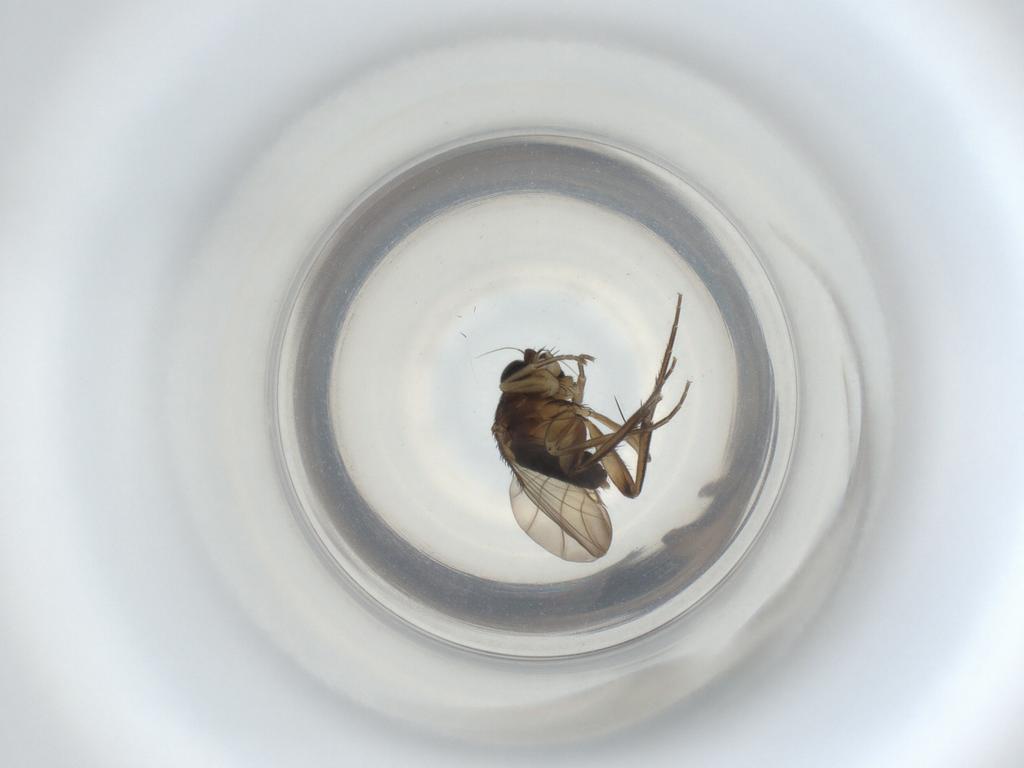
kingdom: Animalia
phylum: Arthropoda
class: Insecta
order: Diptera
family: Phoridae
